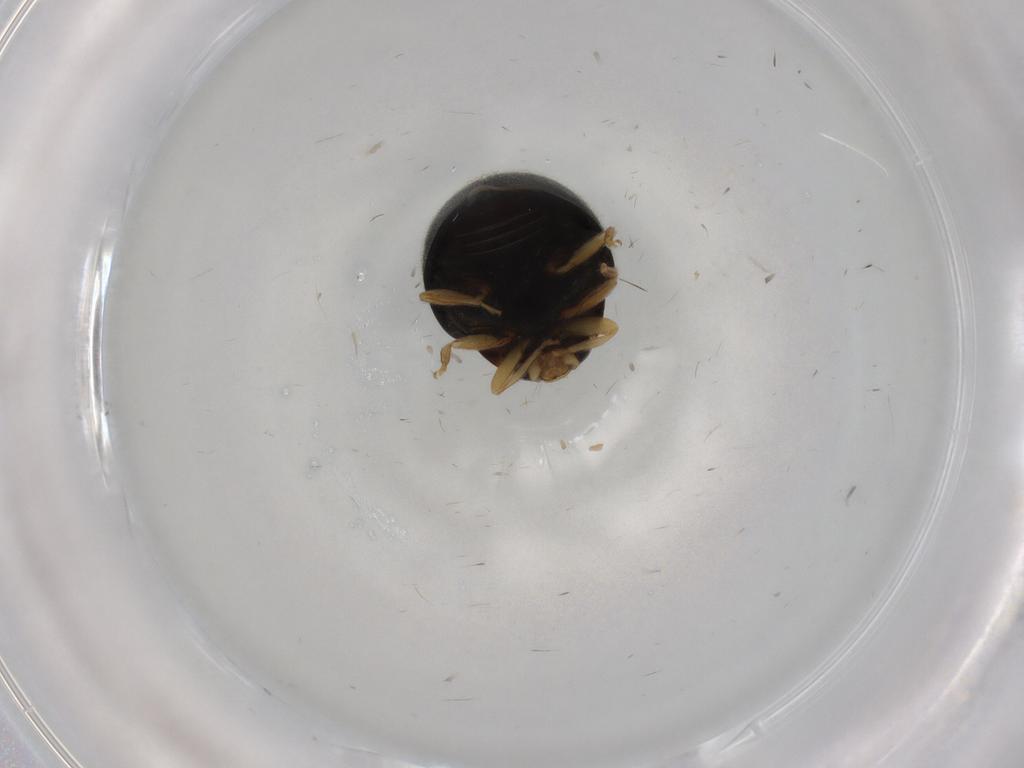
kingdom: Animalia
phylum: Arthropoda
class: Insecta
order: Coleoptera
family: Coccinellidae
